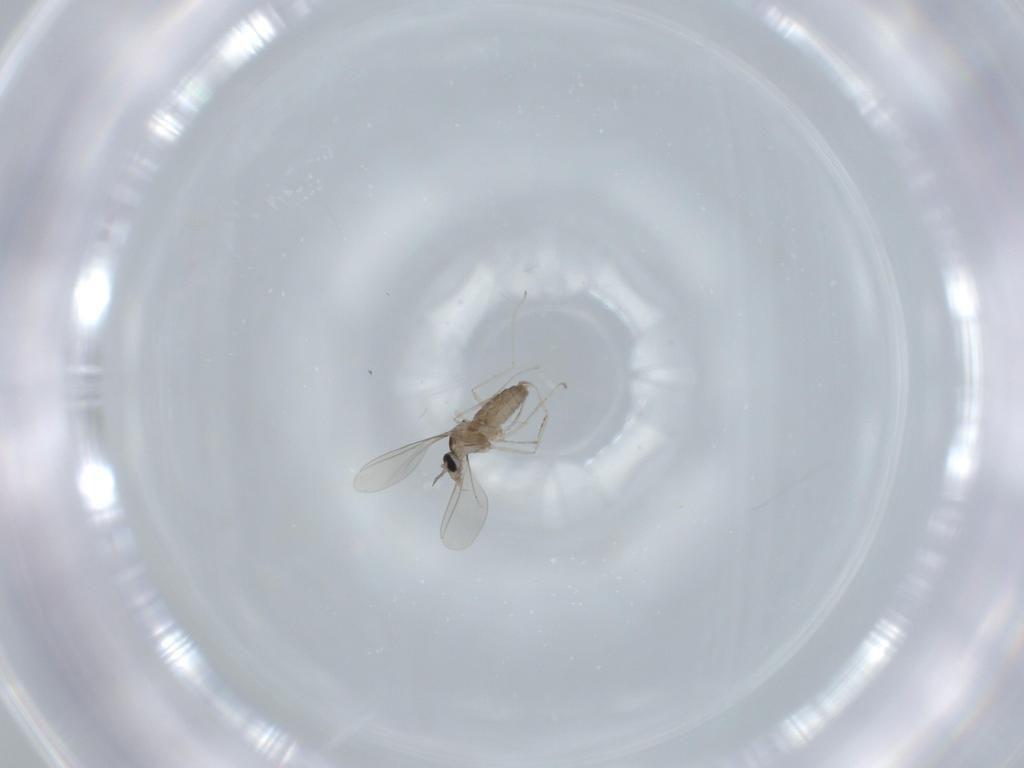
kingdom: Animalia
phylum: Arthropoda
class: Insecta
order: Diptera
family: Cecidomyiidae
